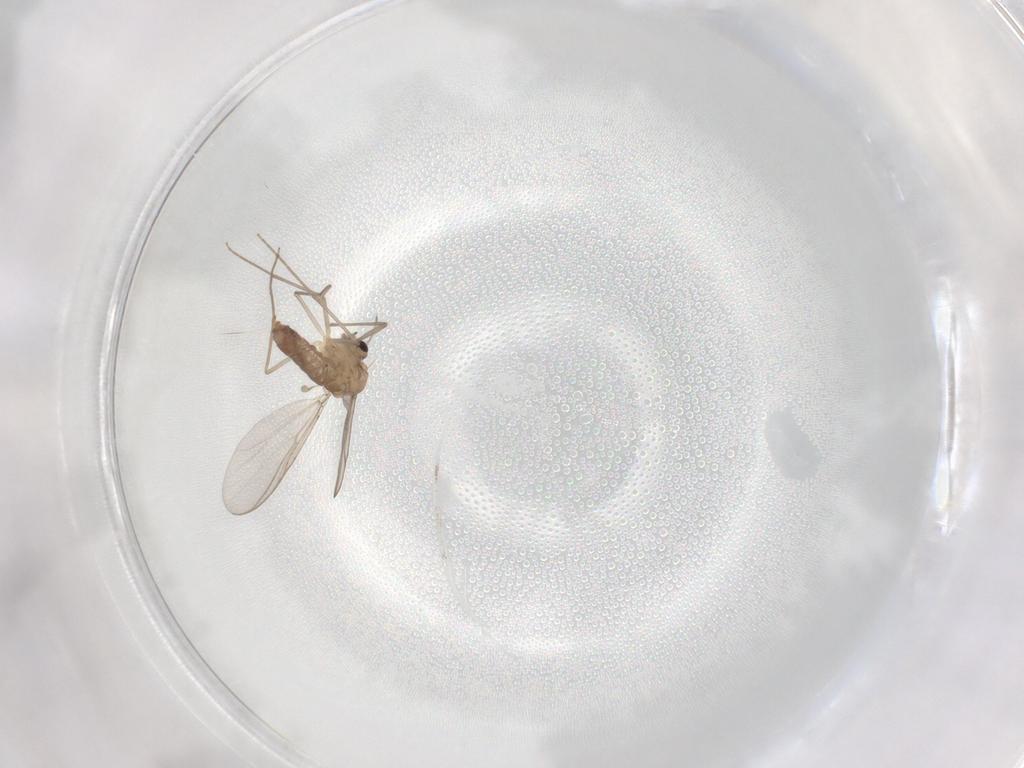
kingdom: Animalia
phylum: Arthropoda
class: Insecta
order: Diptera
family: Chironomidae
